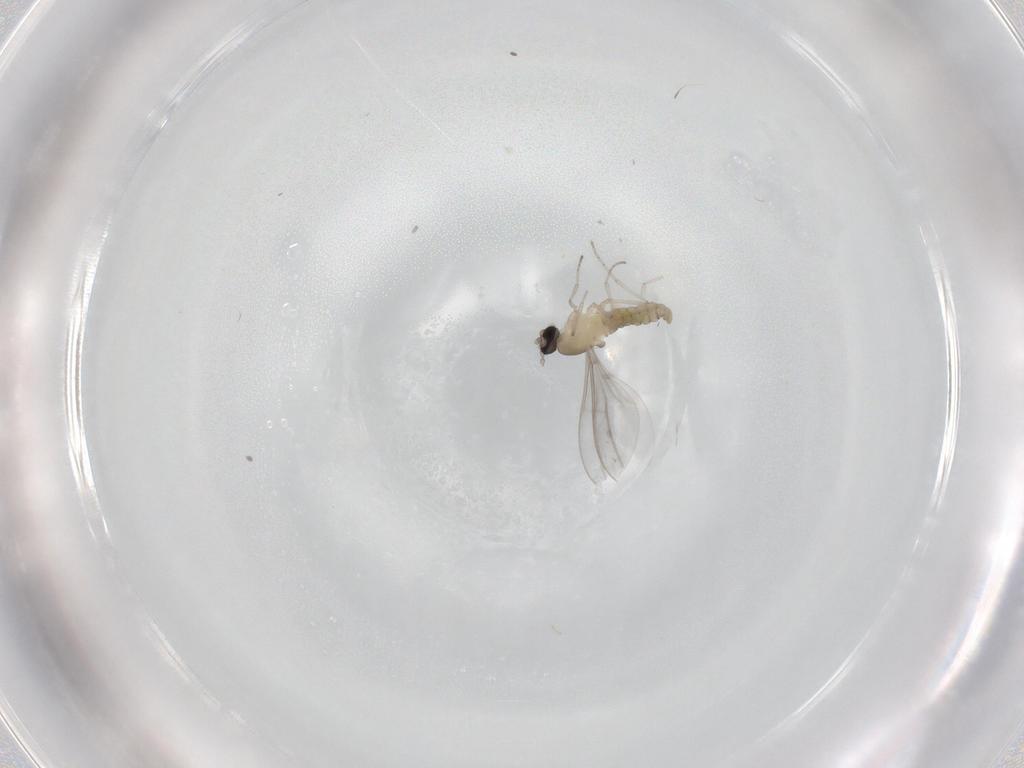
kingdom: Animalia
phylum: Arthropoda
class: Insecta
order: Diptera
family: Cecidomyiidae
